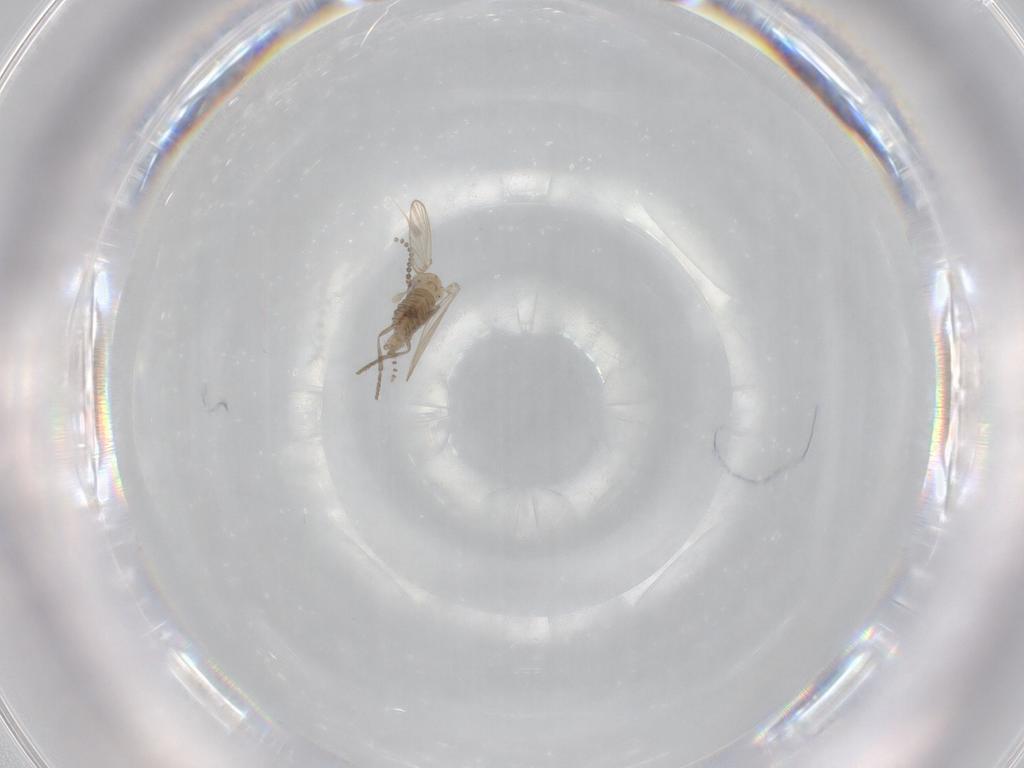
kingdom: Animalia
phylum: Arthropoda
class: Insecta
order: Diptera
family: Psychodidae
